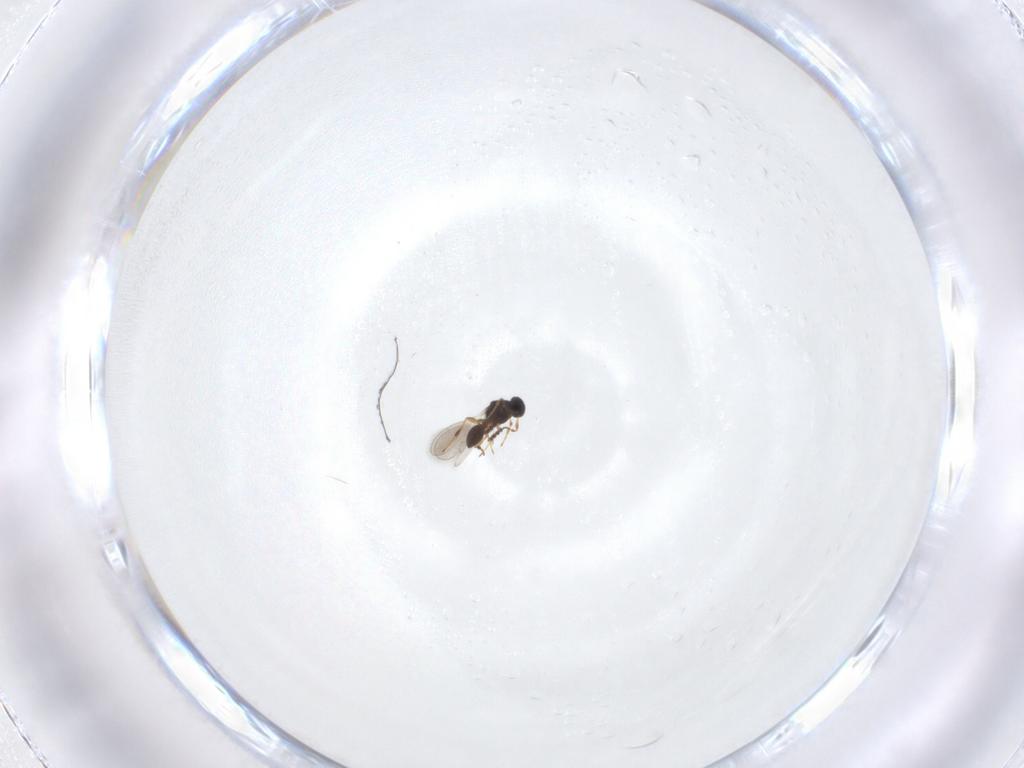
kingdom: Animalia
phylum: Arthropoda
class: Insecta
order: Hymenoptera
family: Platygastridae
